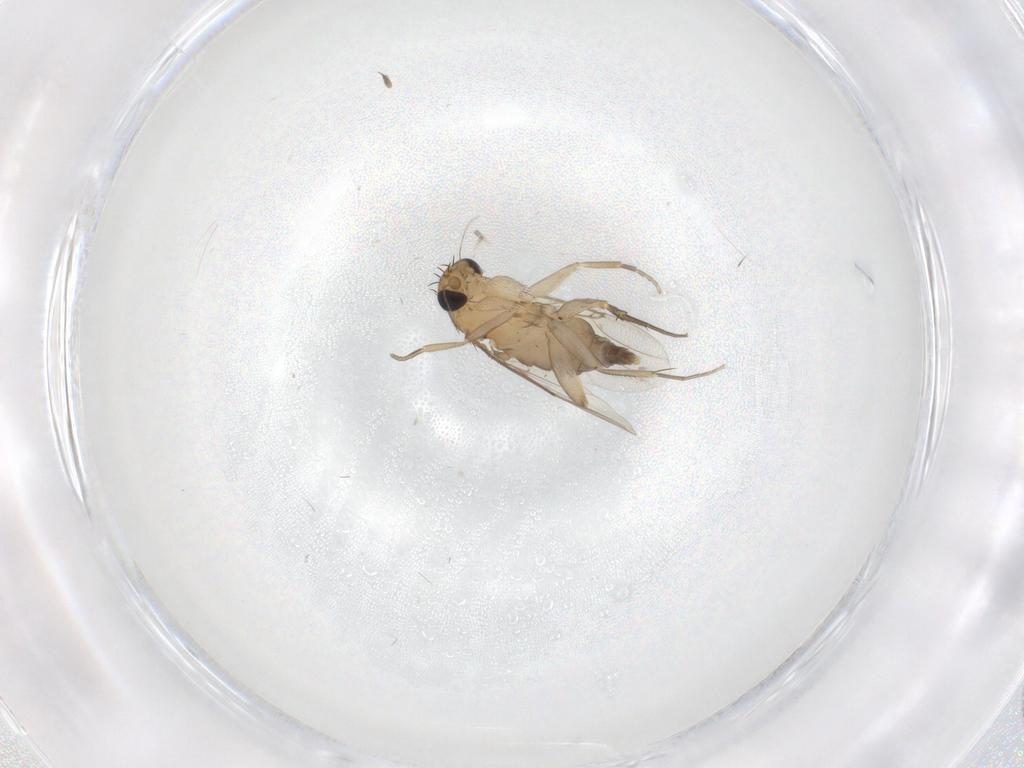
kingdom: Animalia
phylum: Arthropoda
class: Insecta
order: Diptera
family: Phoridae
